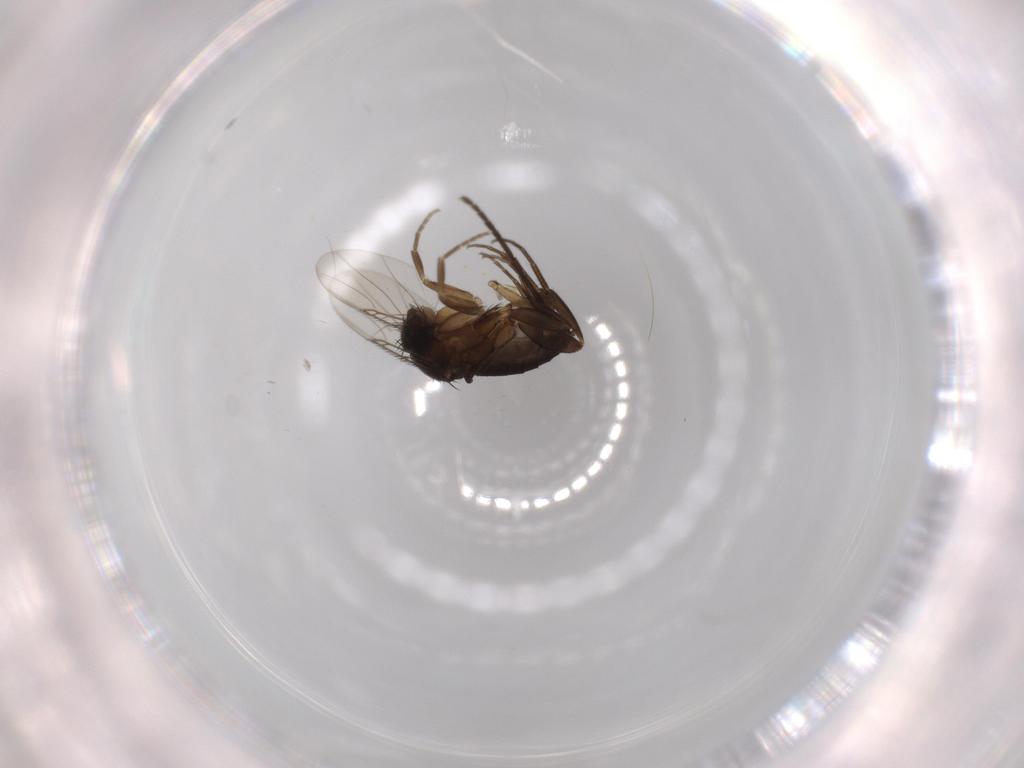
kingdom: Animalia
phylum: Arthropoda
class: Insecta
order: Diptera
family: Phoridae
